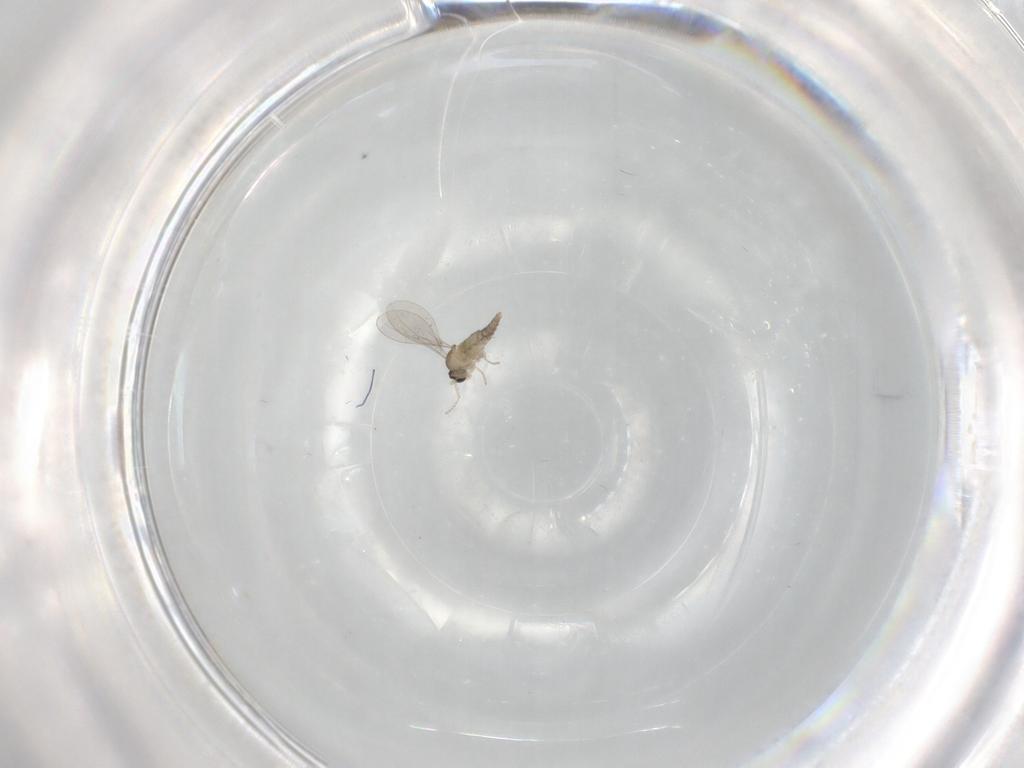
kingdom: Animalia
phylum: Arthropoda
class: Insecta
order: Diptera
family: Cecidomyiidae
